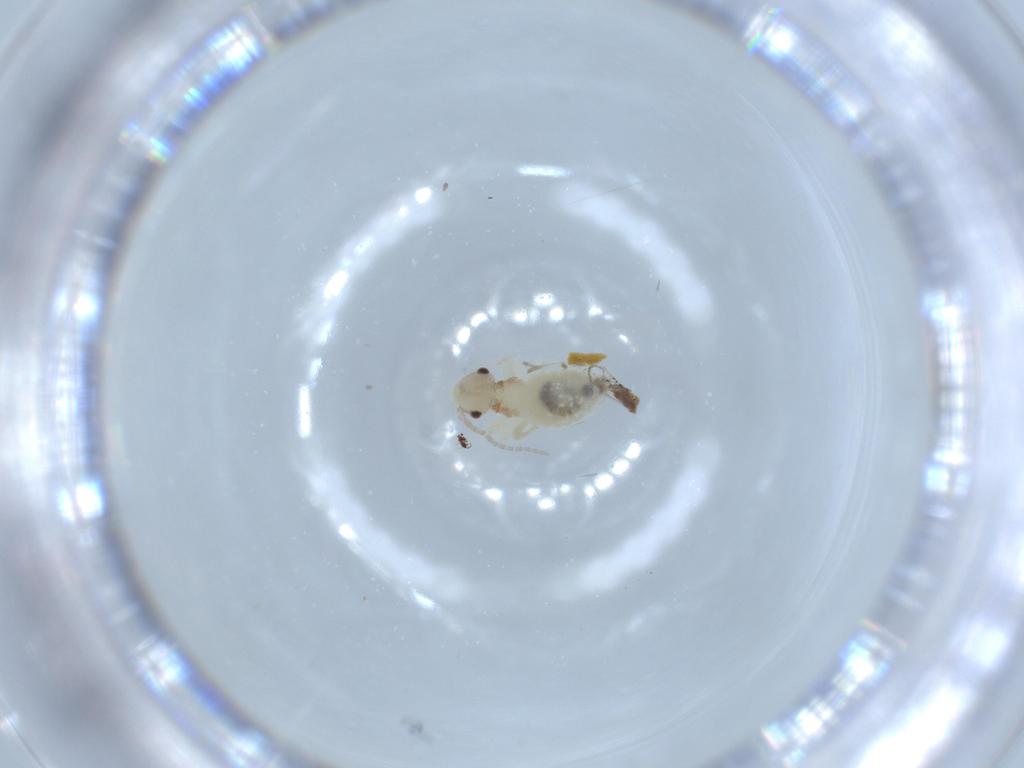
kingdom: Animalia
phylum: Arthropoda
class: Insecta
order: Psocodea
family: Amphipsocidae
